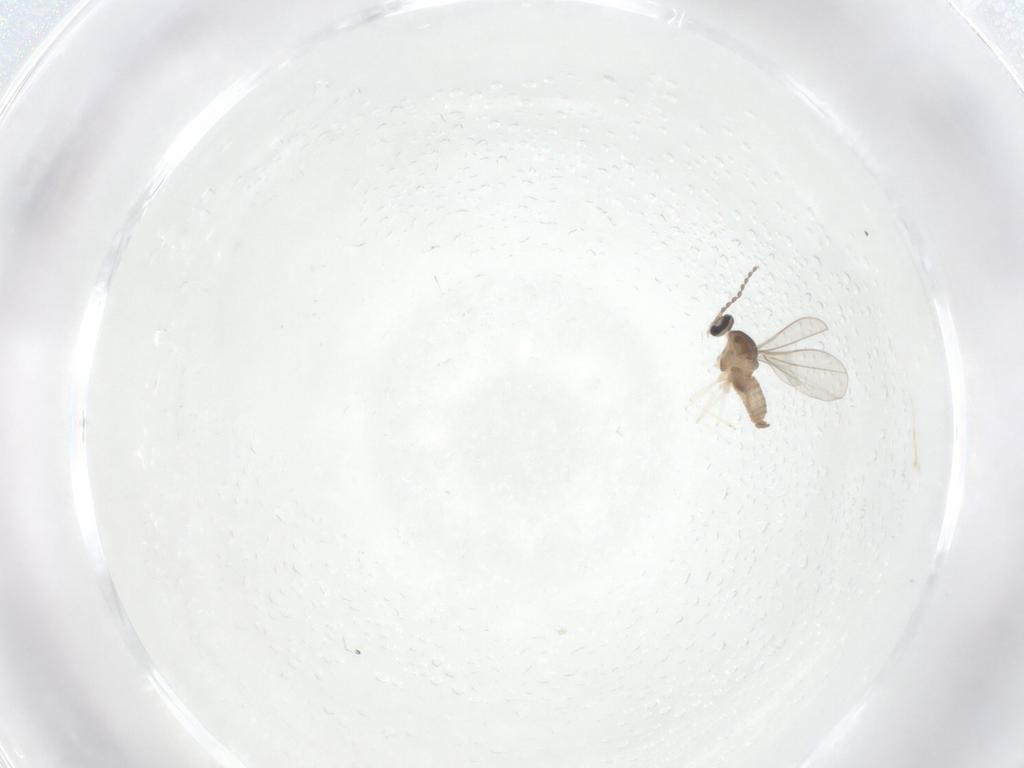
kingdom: Animalia
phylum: Arthropoda
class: Insecta
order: Diptera
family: Cecidomyiidae
